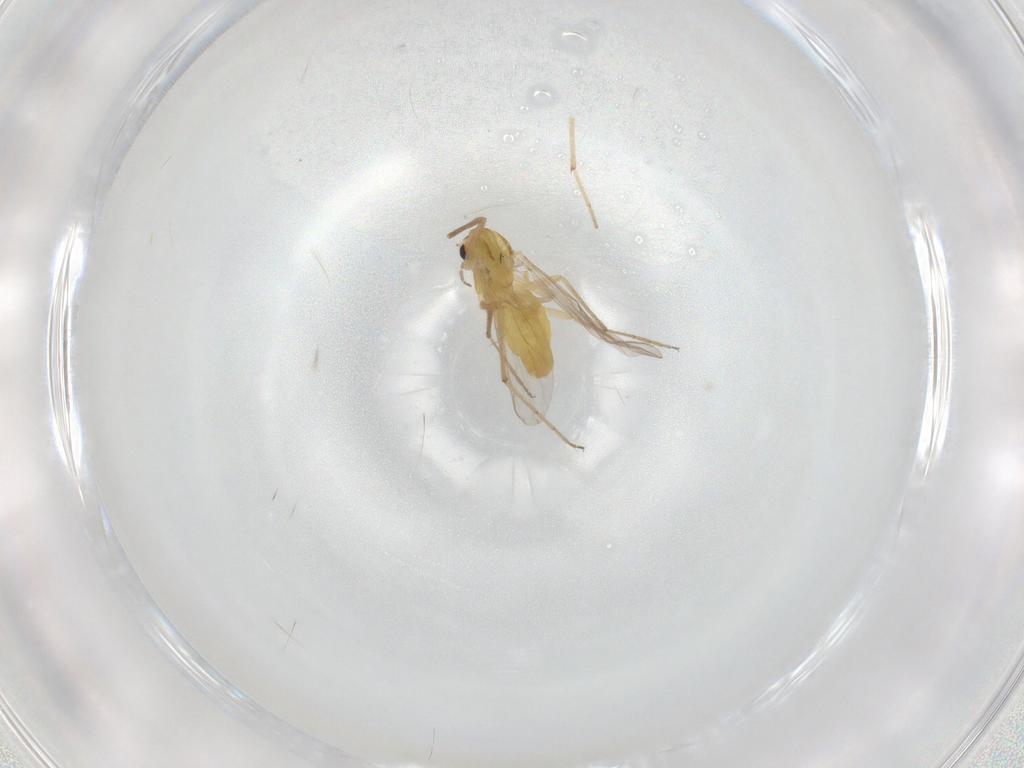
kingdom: Animalia
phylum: Arthropoda
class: Insecta
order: Diptera
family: Chironomidae
